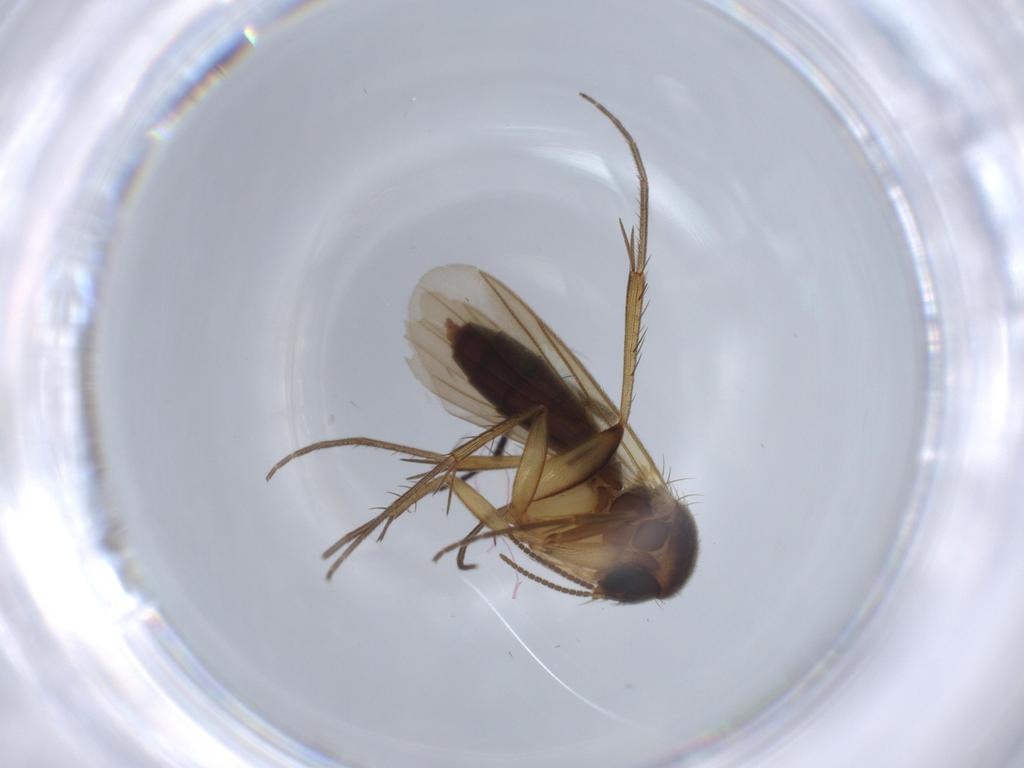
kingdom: Animalia
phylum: Arthropoda
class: Insecta
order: Diptera
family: Mycetophilidae
